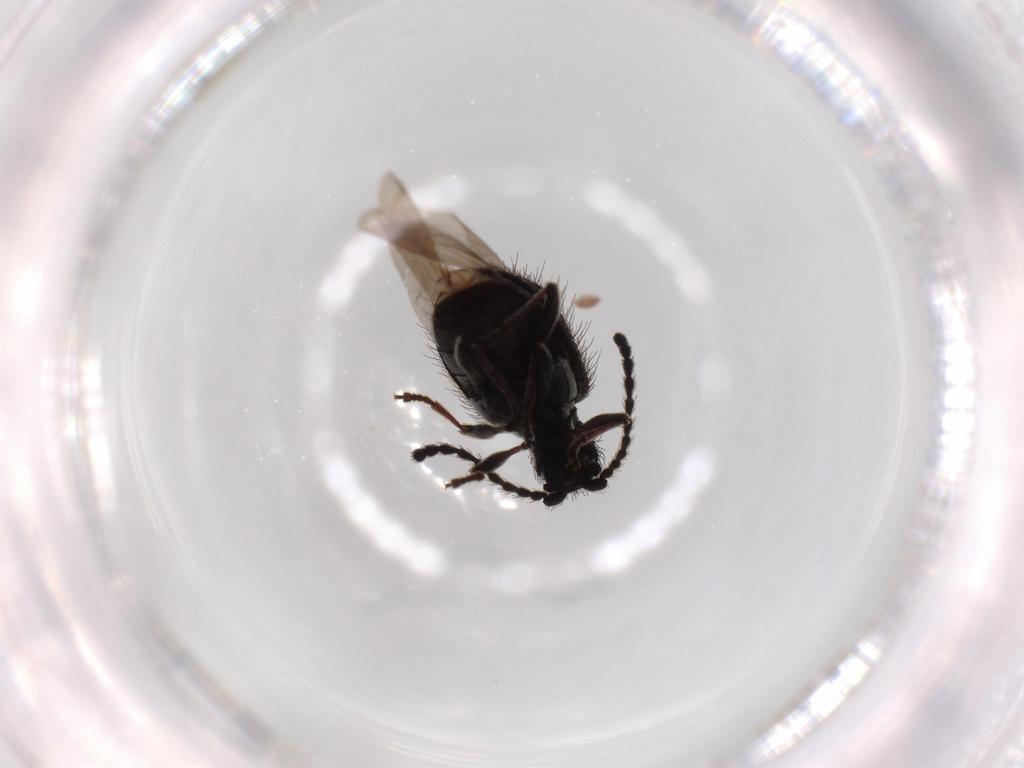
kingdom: Animalia
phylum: Arthropoda
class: Insecta
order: Coleoptera
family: Ptinidae
